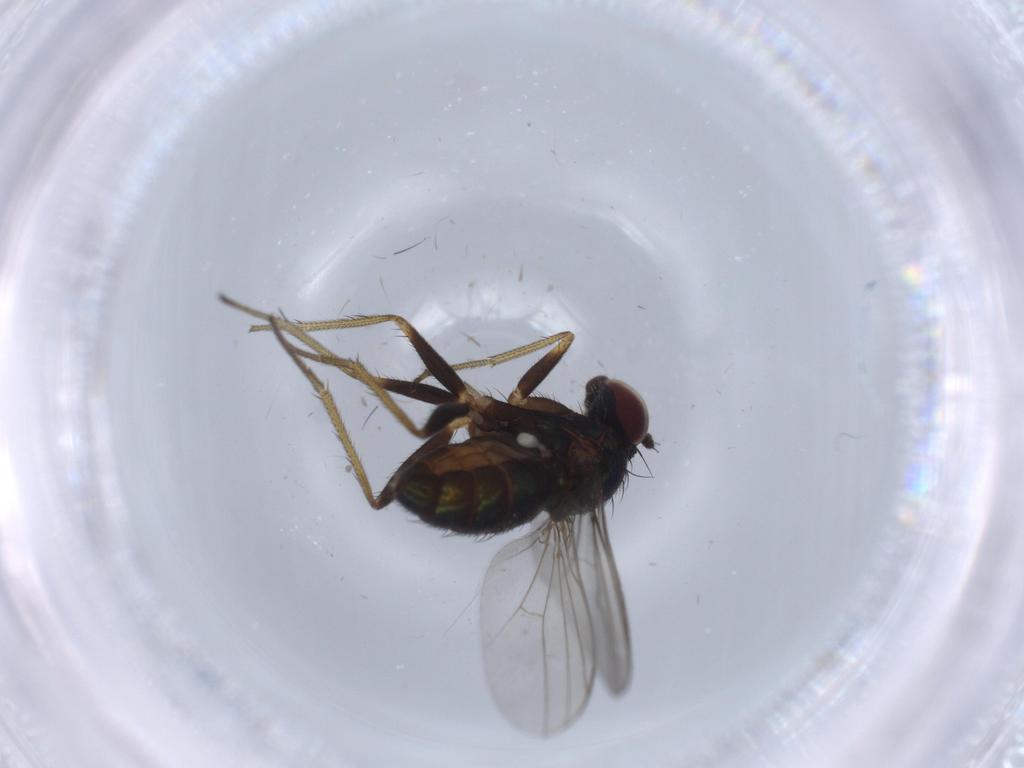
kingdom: Animalia
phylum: Arthropoda
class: Insecta
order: Diptera
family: Cecidomyiidae
